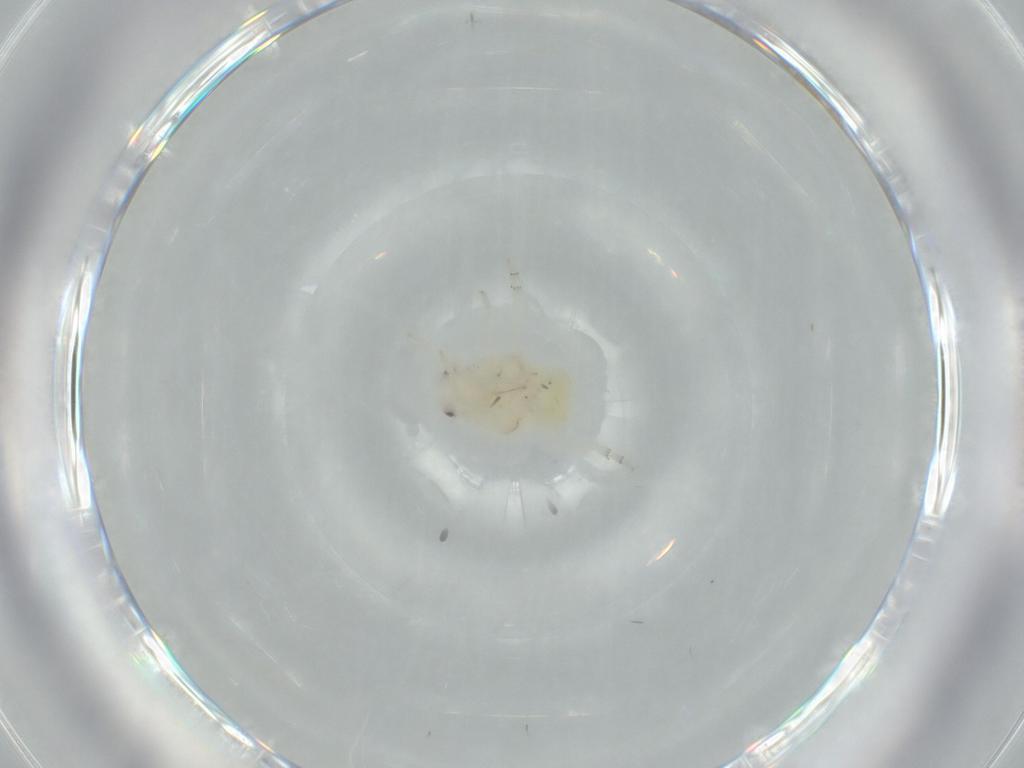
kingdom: Animalia
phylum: Arthropoda
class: Insecta
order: Hemiptera
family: Flatidae
